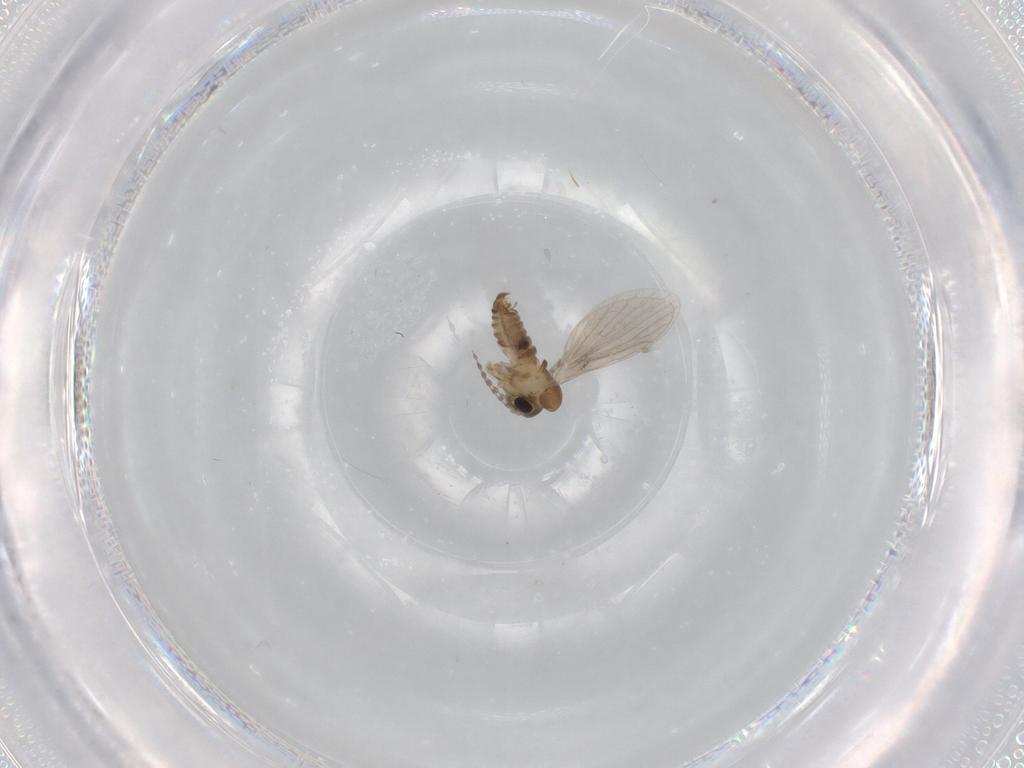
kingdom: Animalia
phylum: Arthropoda
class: Insecta
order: Diptera
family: Psychodidae
